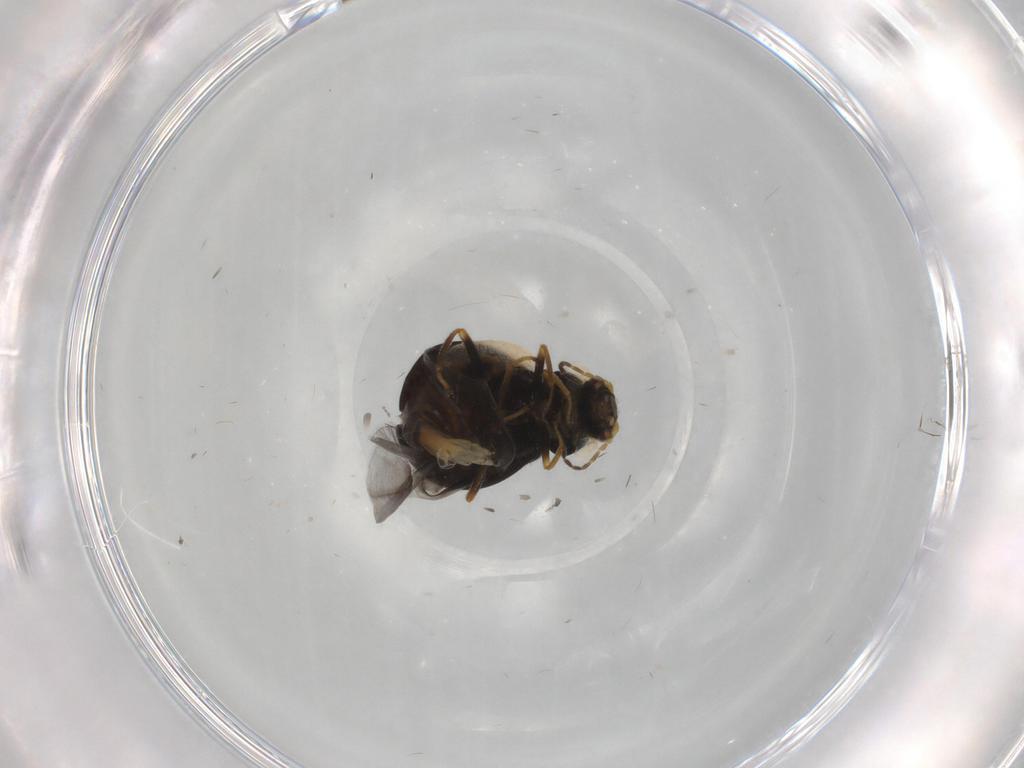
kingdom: Animalia
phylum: Arthropoda
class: Insecta
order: Coleoptera
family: Melyridae
